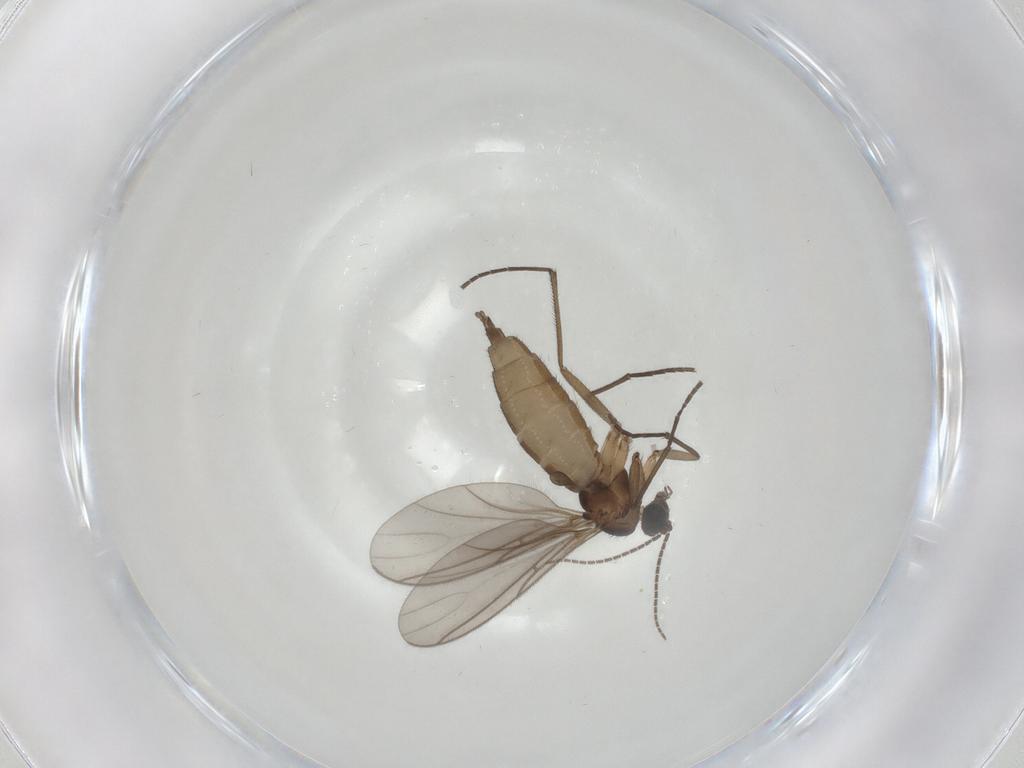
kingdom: Animalia
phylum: Arthropoda
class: Insecta
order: Diptera
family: Sciaridae
